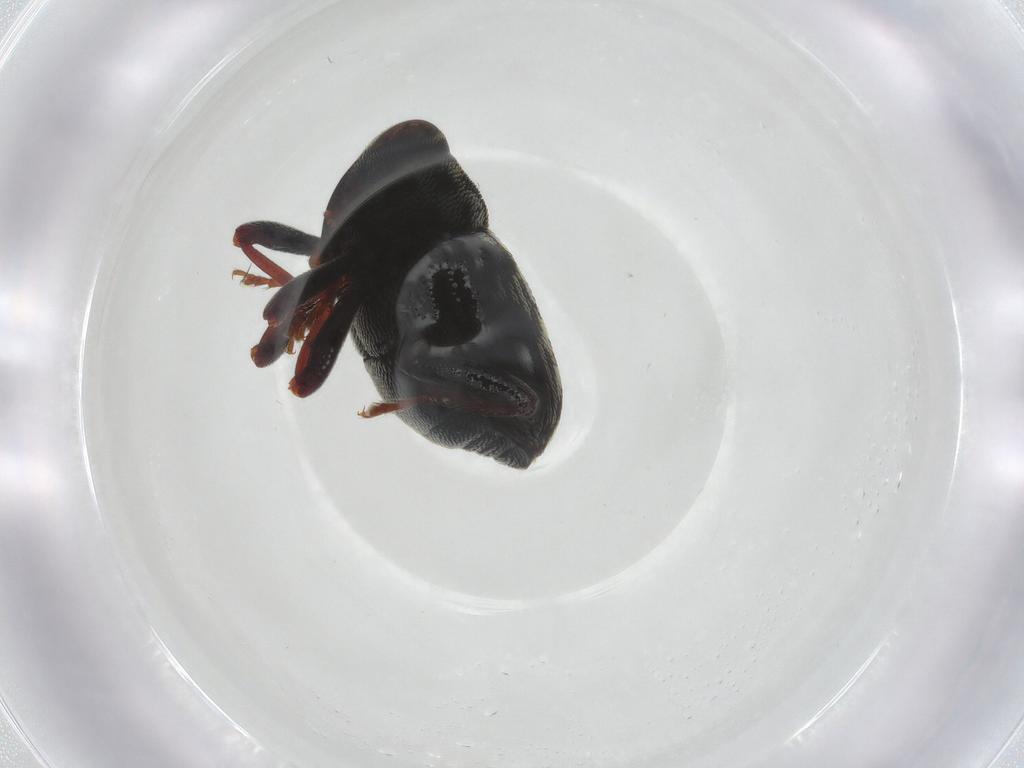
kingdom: Animalia
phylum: Arthropoda
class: Insecta
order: Coleoptera
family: Curculionidae
